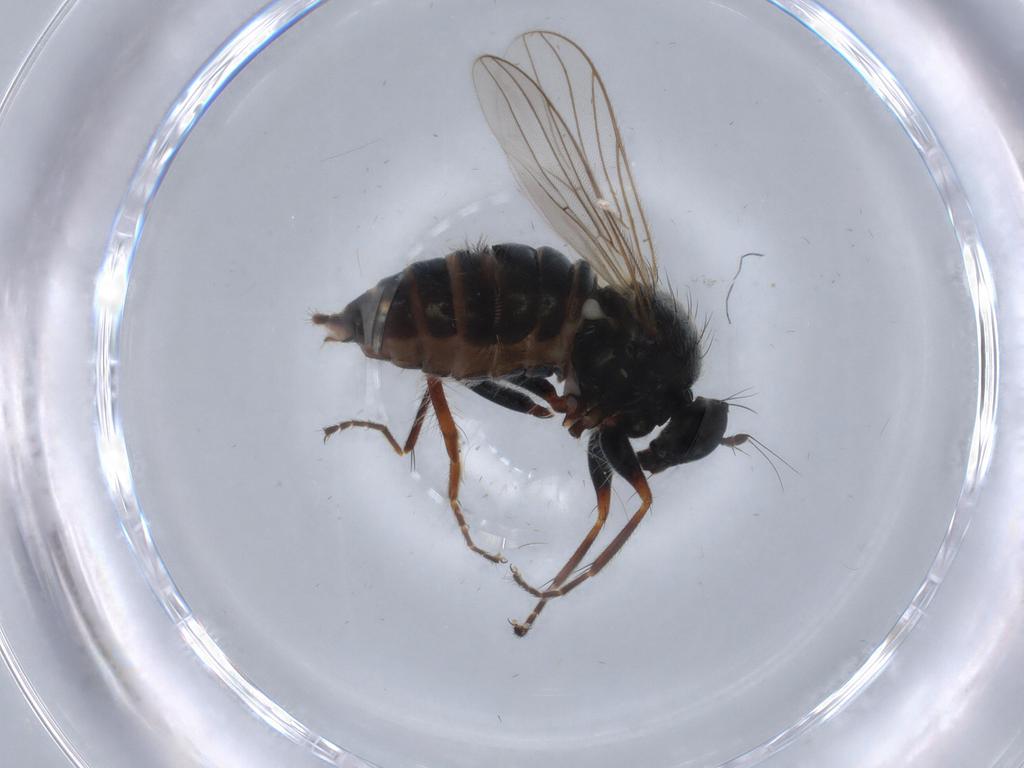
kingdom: Animalia
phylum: Arthropoda
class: Insecta
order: Diptera
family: Hybotidae
